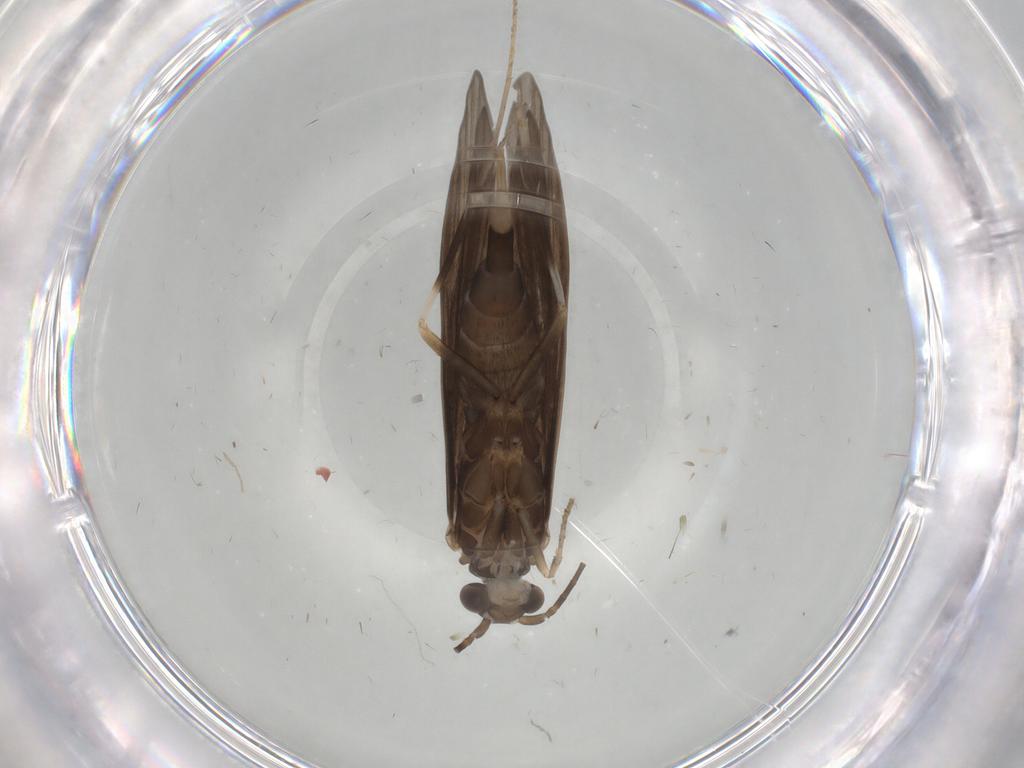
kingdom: Animalia
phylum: Arthropoda
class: Insecta
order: Trichoptera
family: Xiphocentronidae
